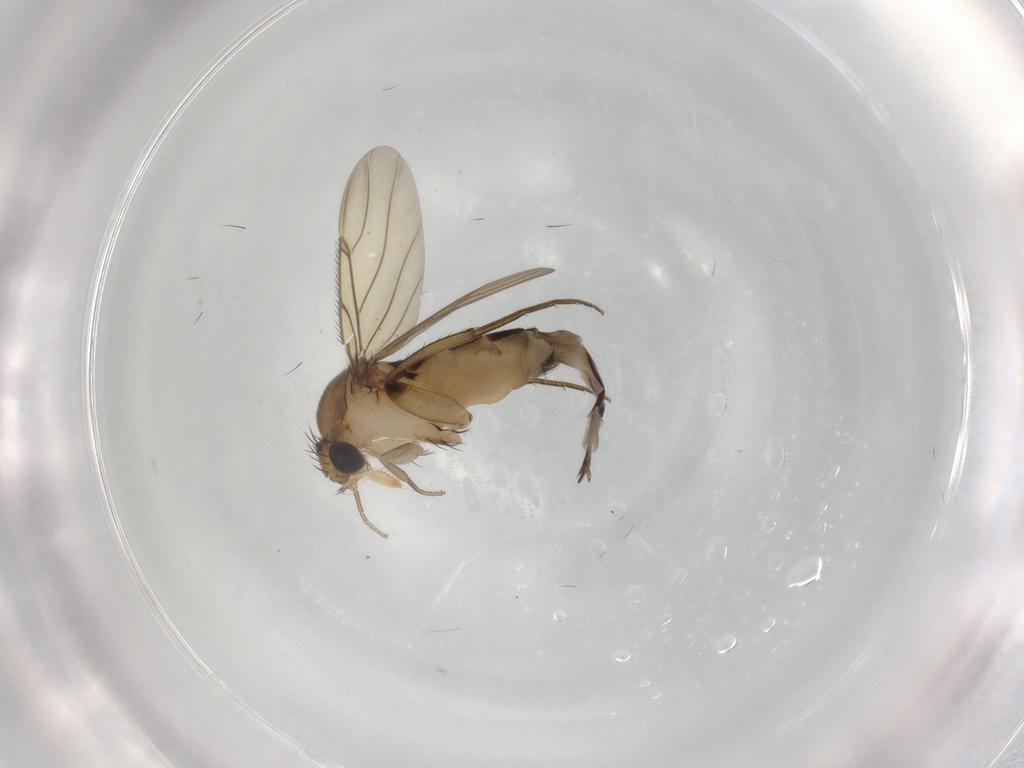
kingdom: Animalia
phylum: Arthropoda
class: Insecta
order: Diptera
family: Phoridae
